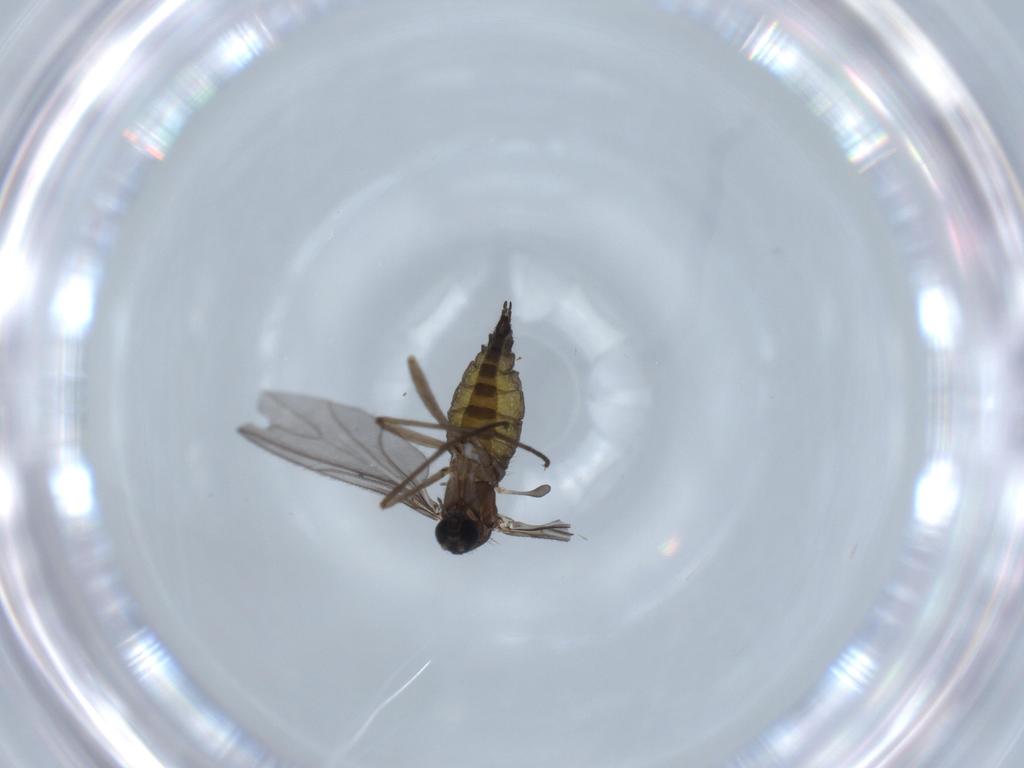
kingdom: Animalia
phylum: Arthropoda
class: Insecta
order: Diptera
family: Sciaridae
